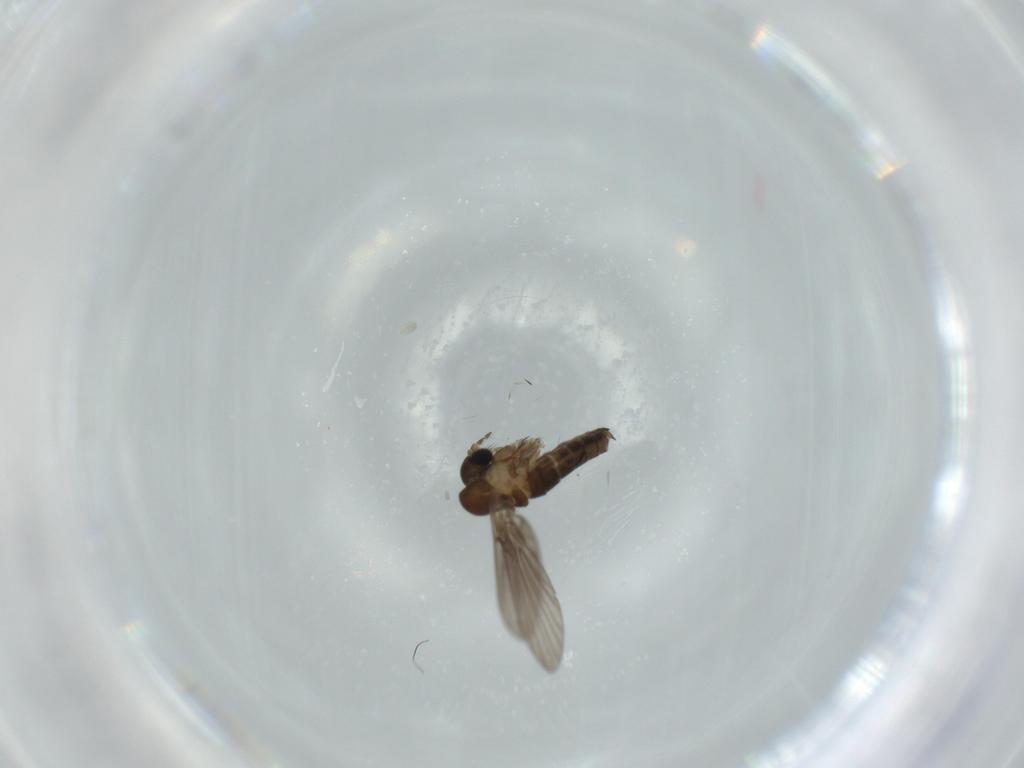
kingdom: Animalia
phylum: Arthropoda
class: Insecta
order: Diptera
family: Psychodidae
